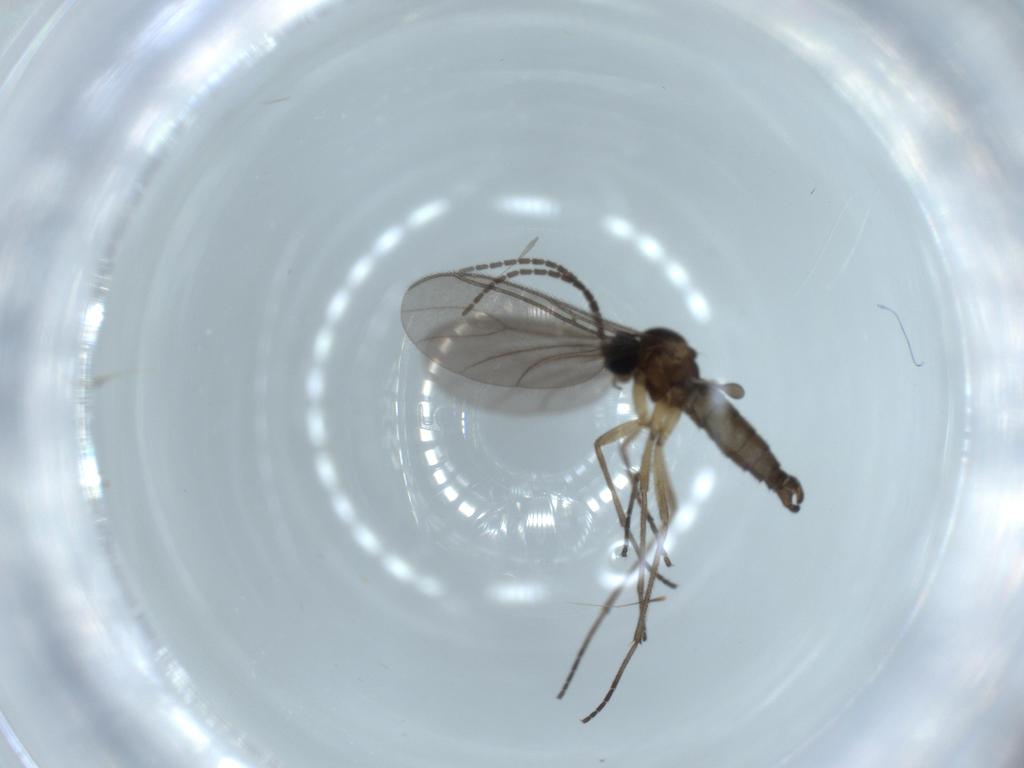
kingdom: Animalia
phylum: Arthropoda
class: Insecta
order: Diptera
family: Sciaridae
